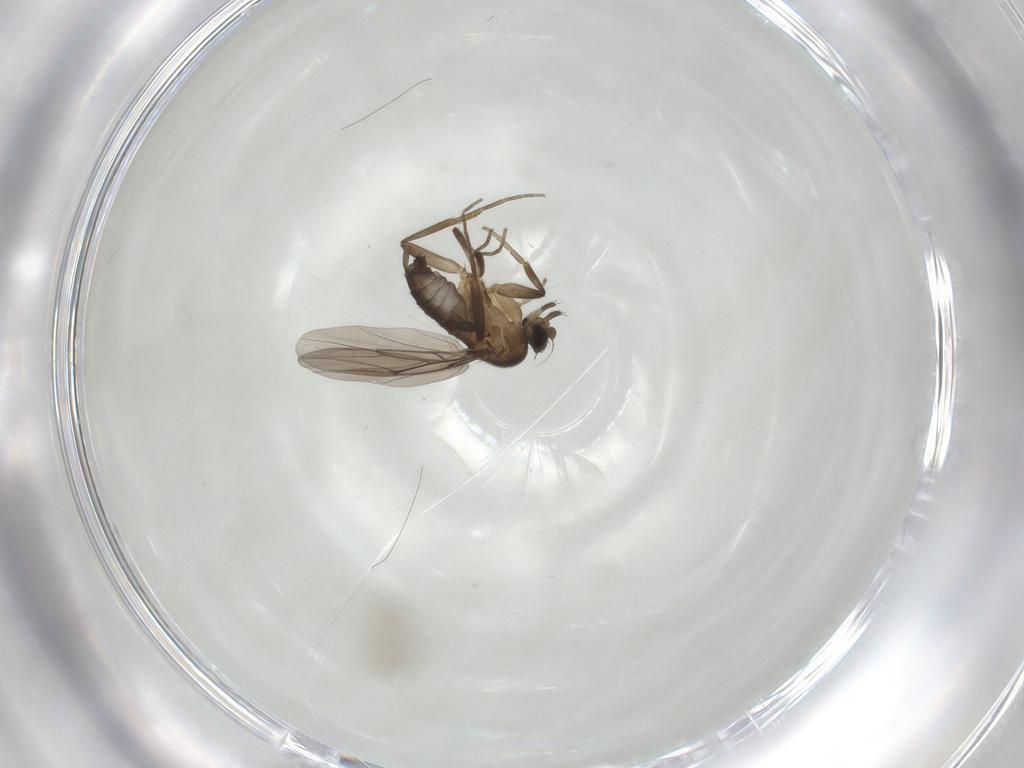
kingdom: Animalia
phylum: Arthropoda
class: Insecta
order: Diptera
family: Phoridae
